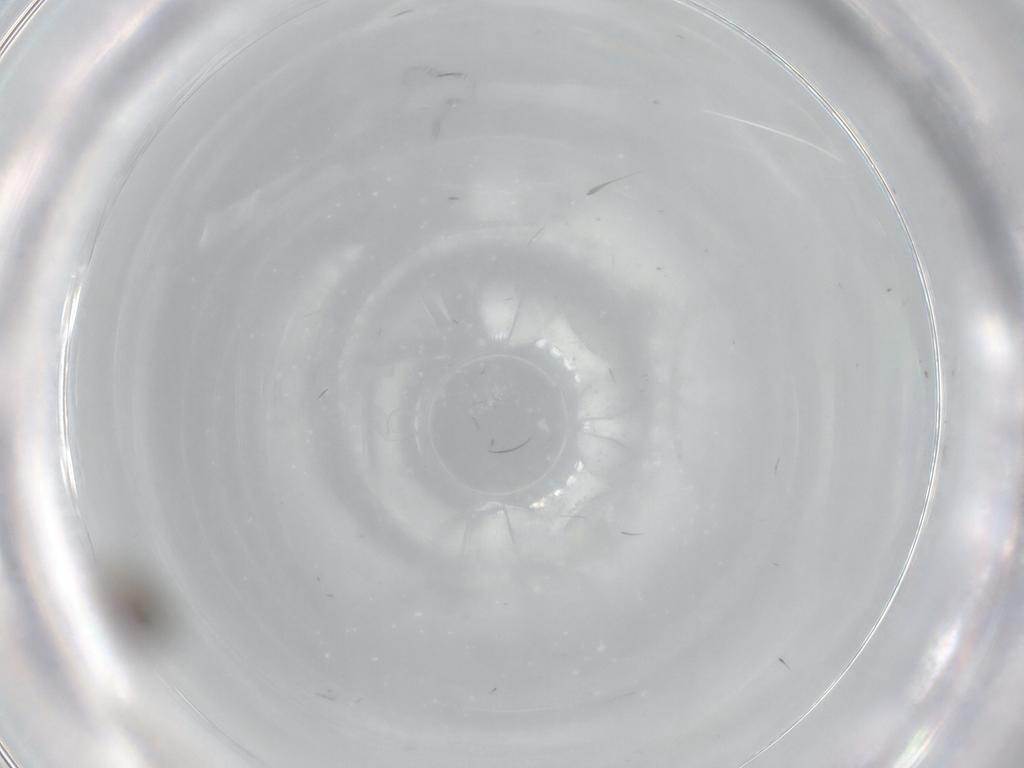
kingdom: Animalia
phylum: Arthropoda
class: Insecta
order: Hymenoptera
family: Scelionidae
